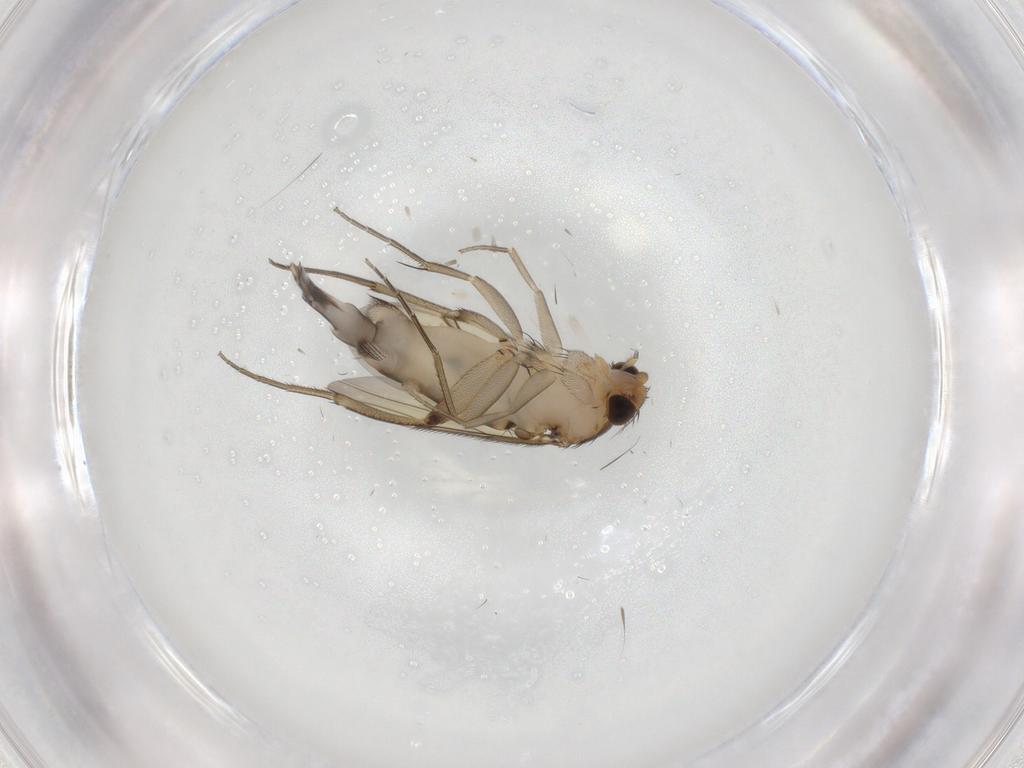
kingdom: Animalia
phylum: Arthropoda
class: Insecta
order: Diptera
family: Phoridae
